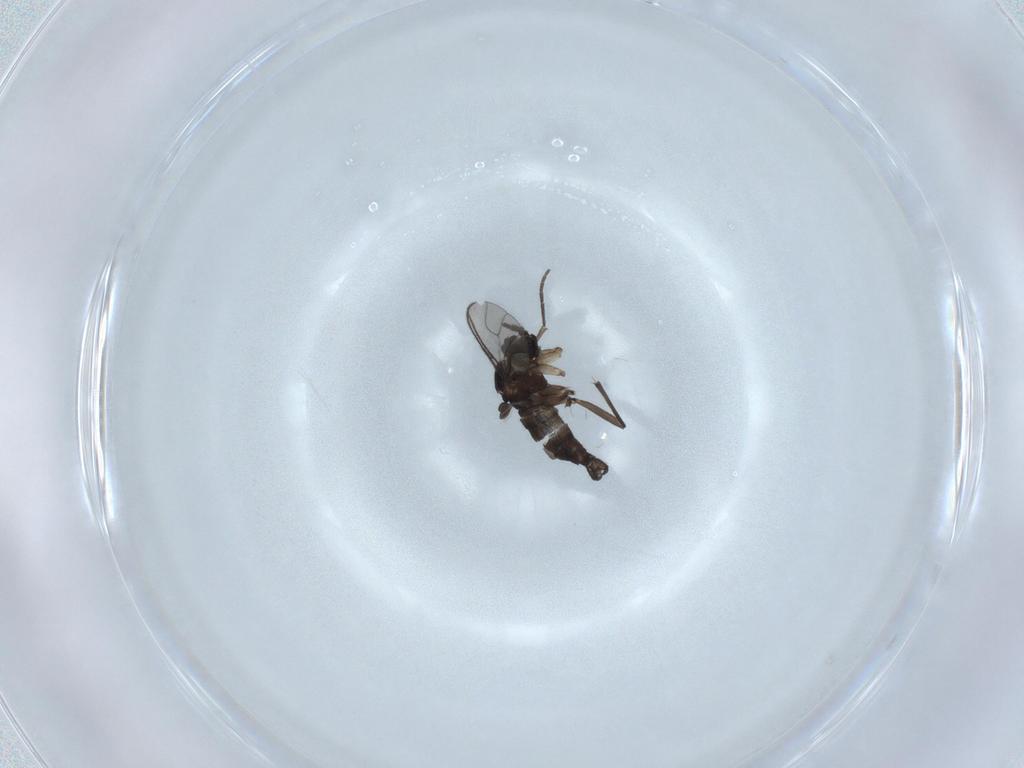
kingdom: Animalia
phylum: Arthropoda
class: Insecta
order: Diptera
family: Sciaridae
